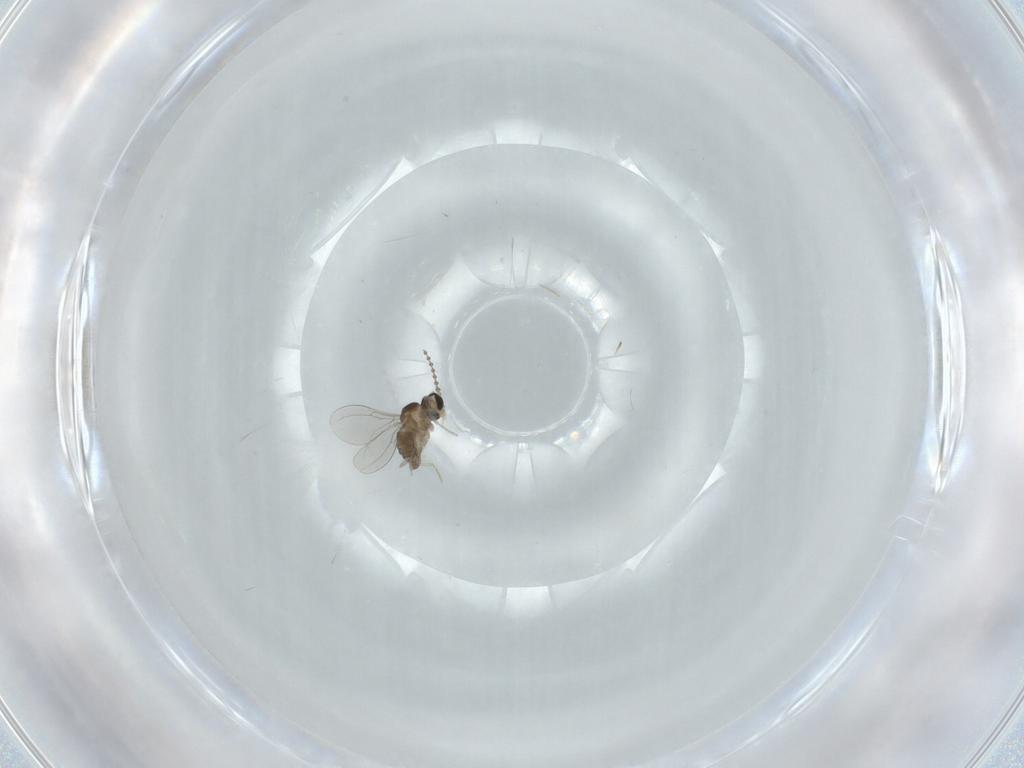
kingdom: Animalia
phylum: Arthropoda
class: Insecta
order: Diptera
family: Cecidomyiidae
